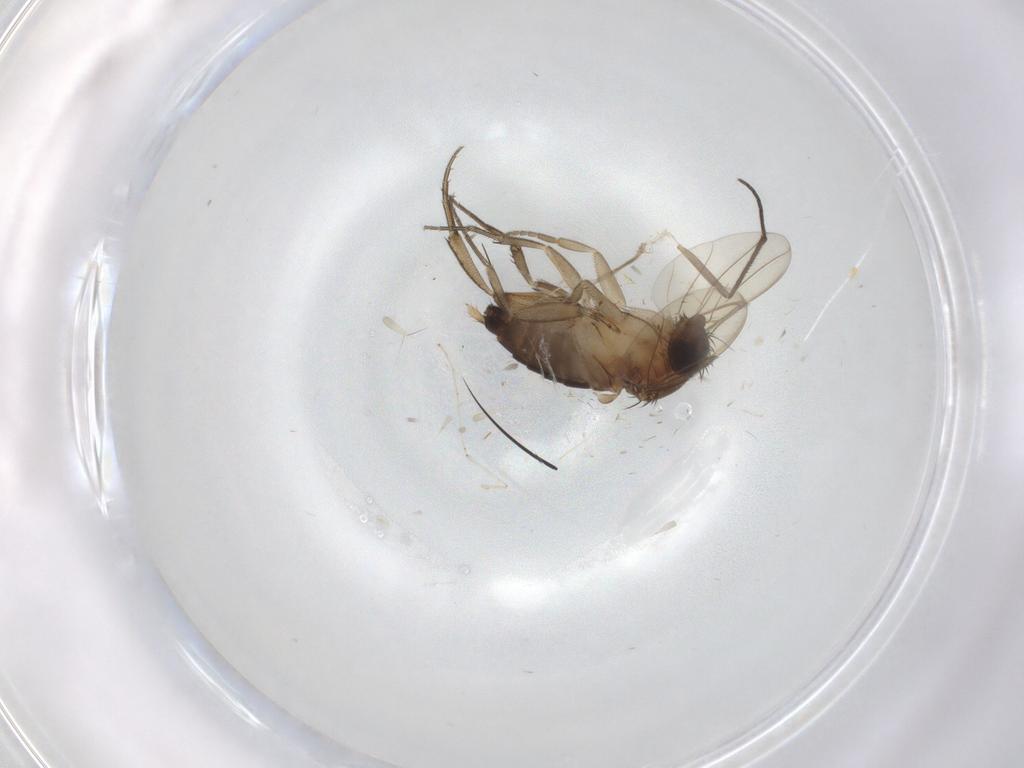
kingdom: Animalia
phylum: Arthropoda
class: Insecta
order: Diptera
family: Sciaridae
